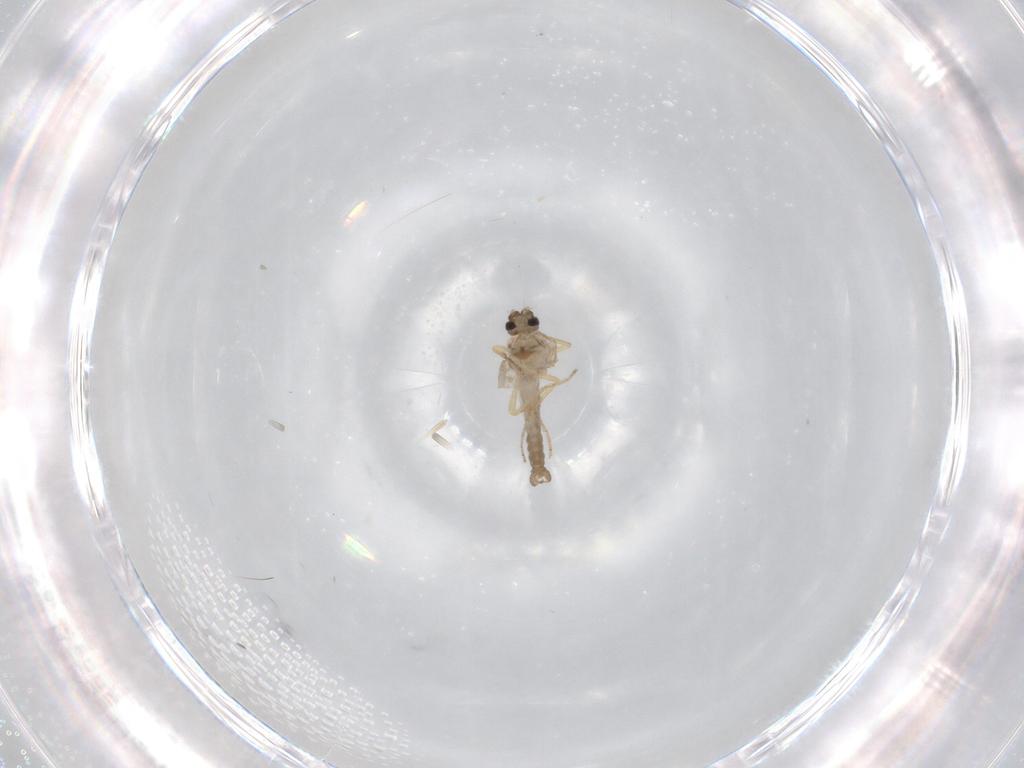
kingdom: Animalia
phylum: Arthropoda
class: Insecta
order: Diptera
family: Ceratopogonidae
